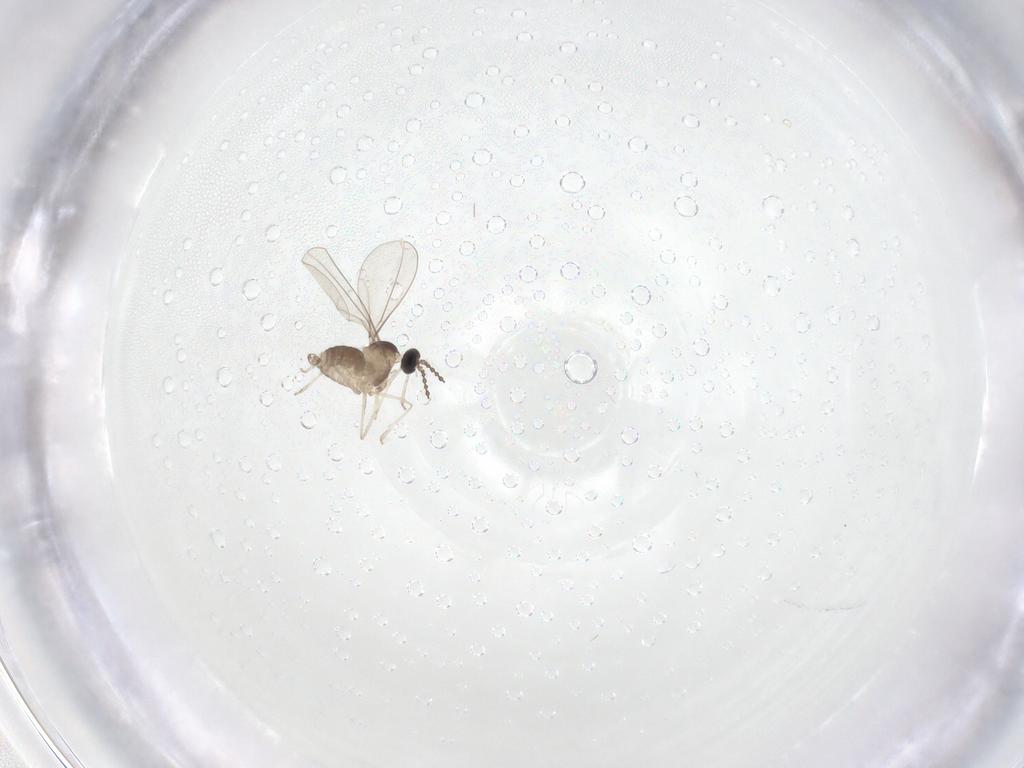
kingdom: Animalia
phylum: Arthropoda
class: Insecta
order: Diptera
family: Cecidomyiidae
